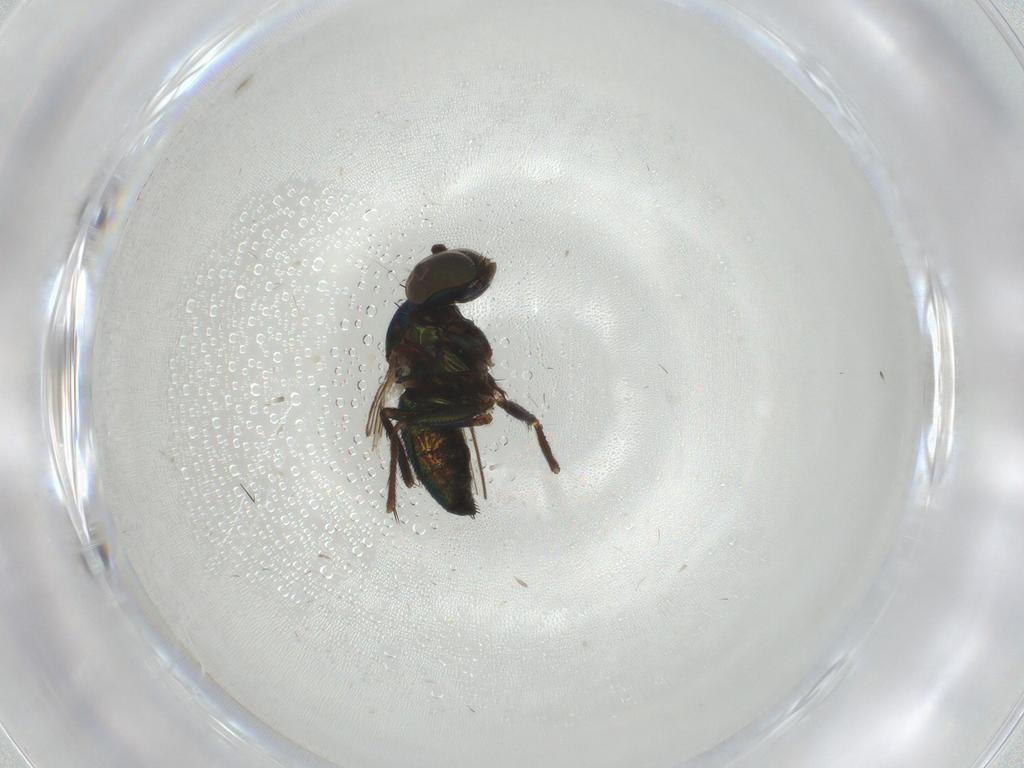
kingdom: Animalia
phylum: Arthropoda
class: Insecta
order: Diptera
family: Dolichopodidae
